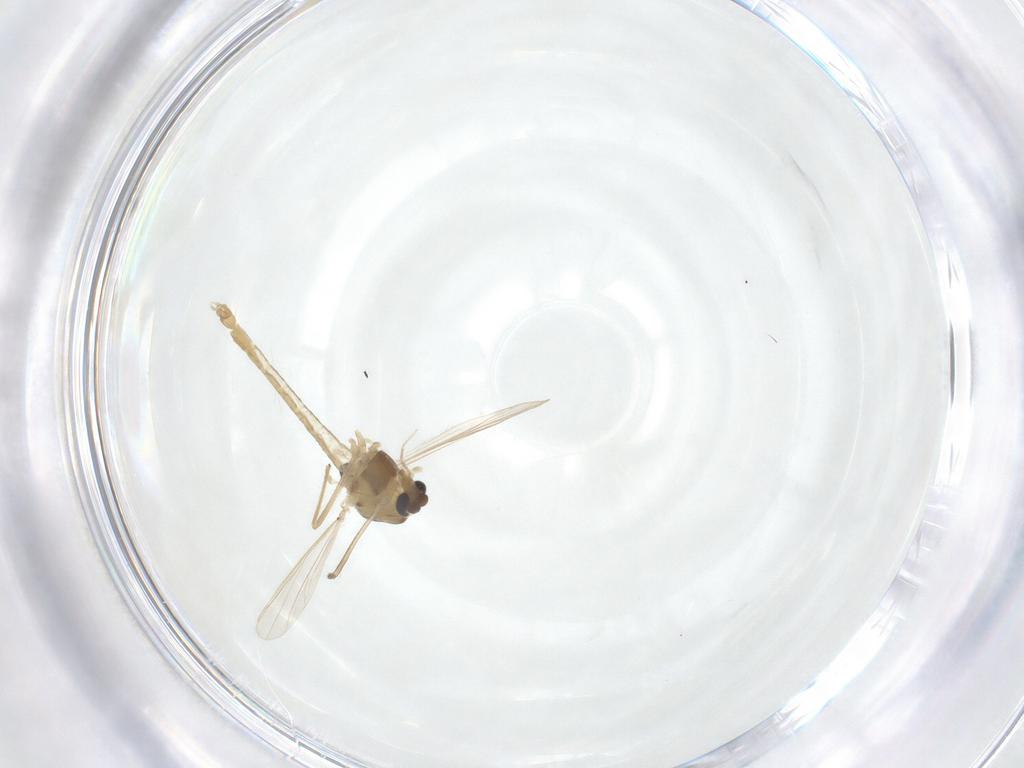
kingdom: Animalia
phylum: Arthropoda
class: Insecta
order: Diptera
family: Chironomidae
